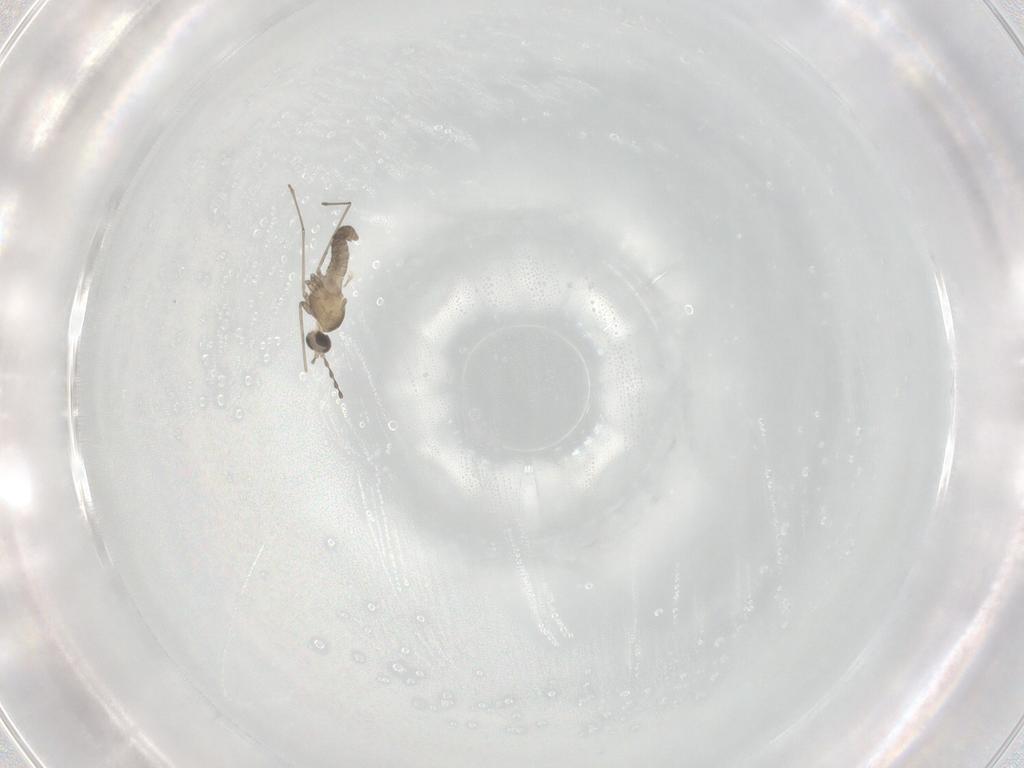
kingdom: Animalia
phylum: Arthropoda
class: Insecta
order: Diptera
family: Cecidomyiidae
